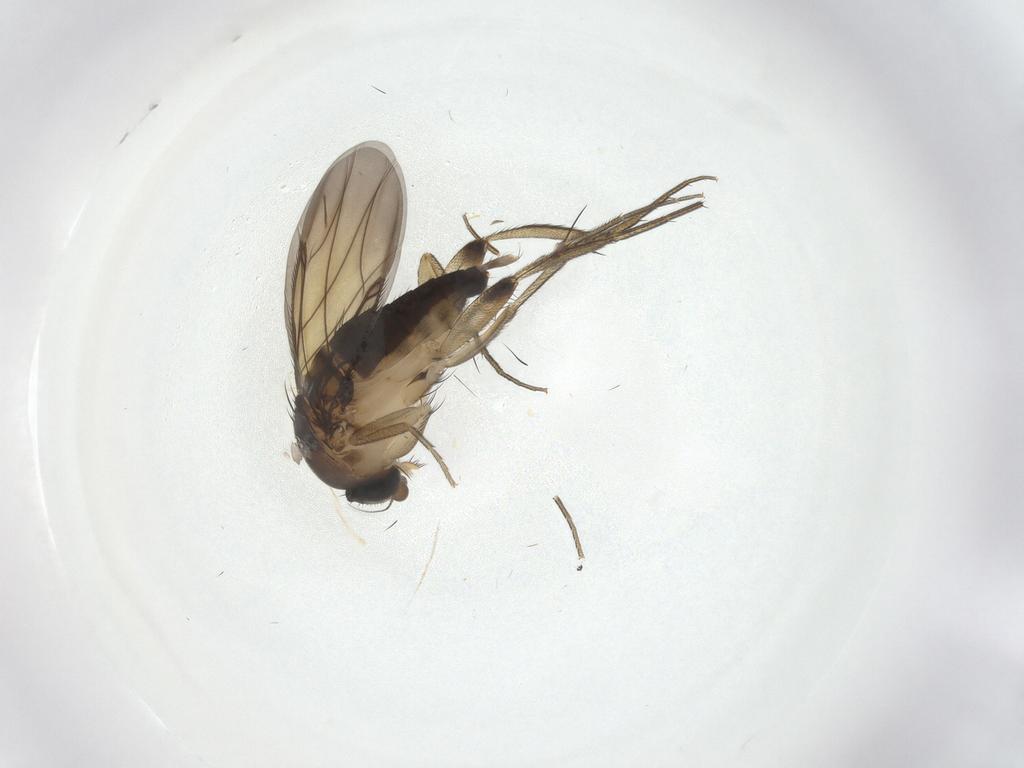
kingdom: Animalia
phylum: Arthropoda
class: Insecta
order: Diptera
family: Phoridae
